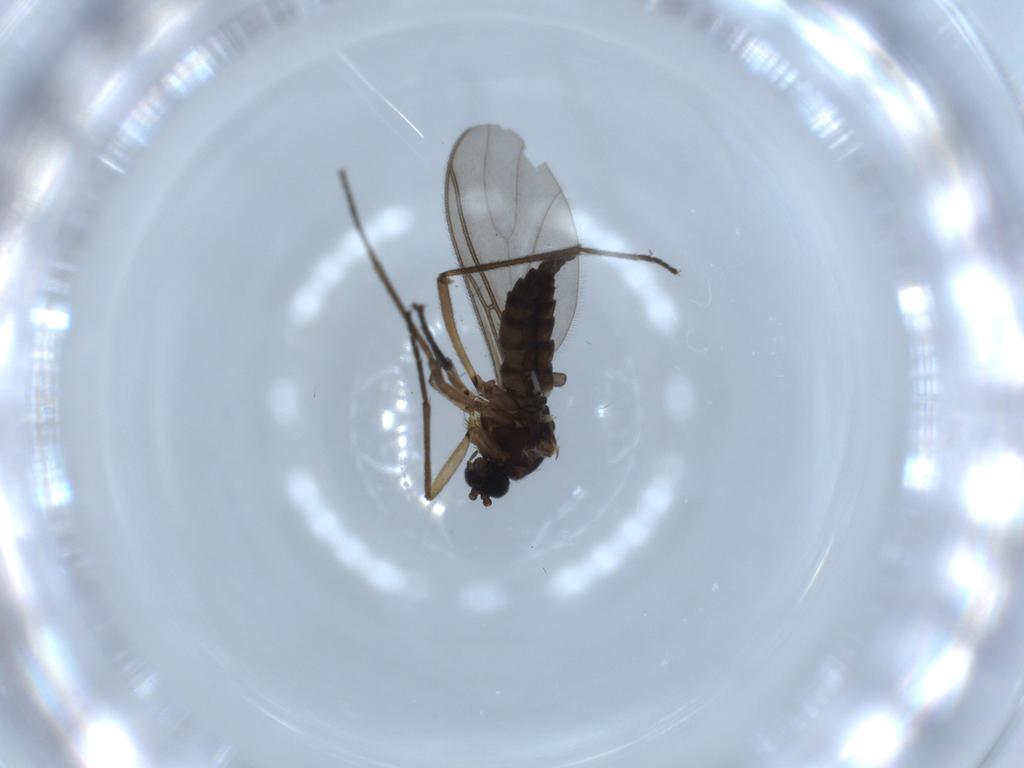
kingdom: Animalia
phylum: Arthropoda
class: Insecta
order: Diptera
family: Sciaridae
